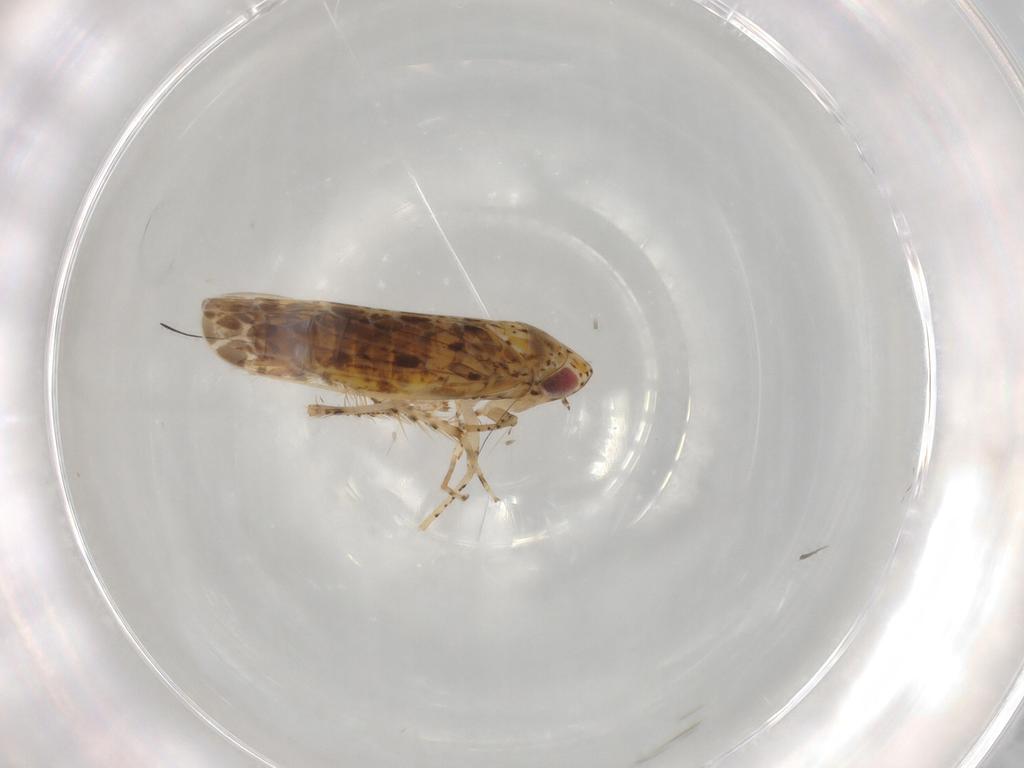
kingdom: Animalia
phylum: Arthropoda
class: Insecta
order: Hemiptera
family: Cicadellidae
